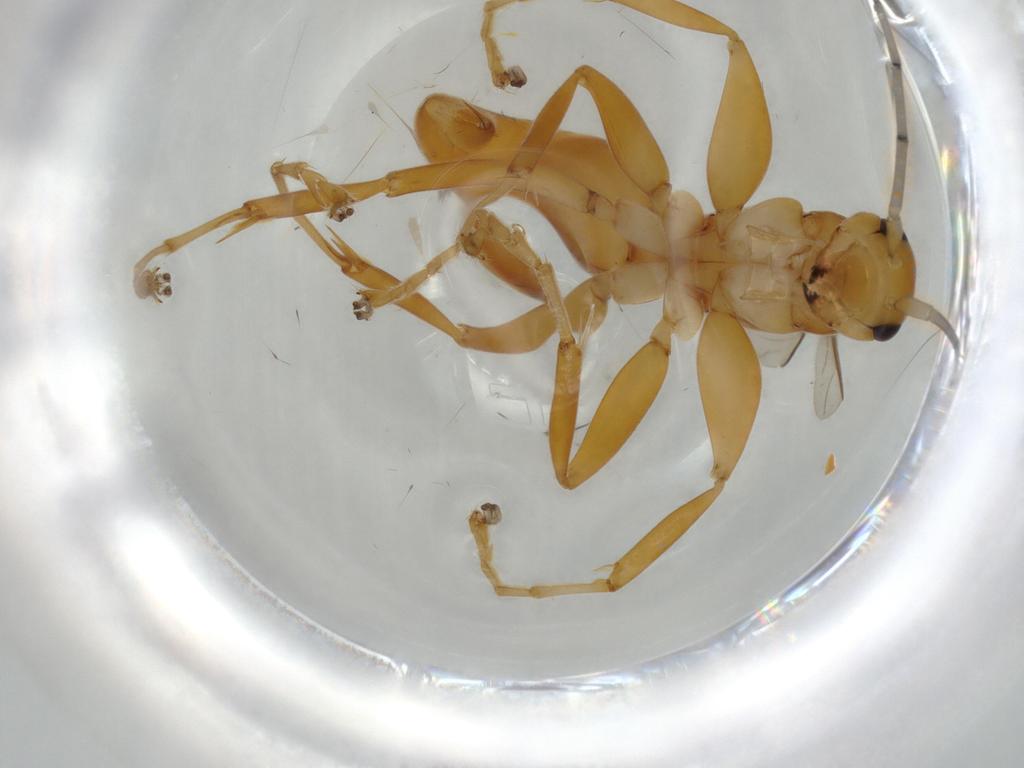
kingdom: Animalia
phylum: Arthropoda
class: Insecta
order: Hymenoptera
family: Rhopalosomatidae
